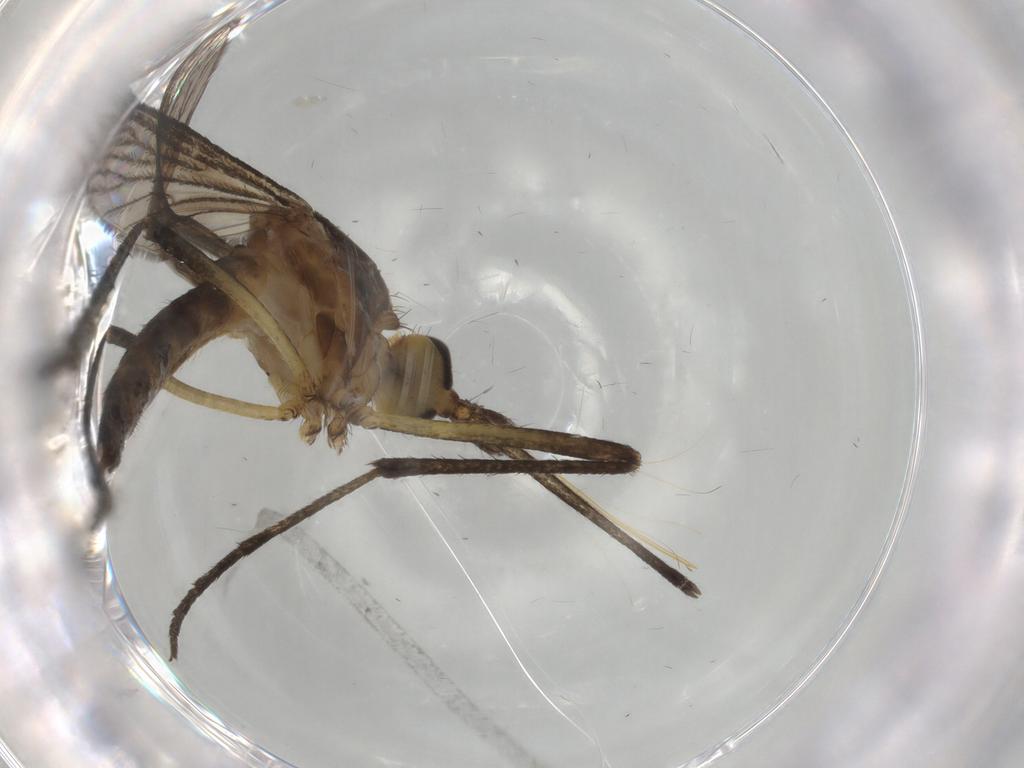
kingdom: Animalia
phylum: Arthropoda
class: Insecta
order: Diptera
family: Cecidomyiidae
